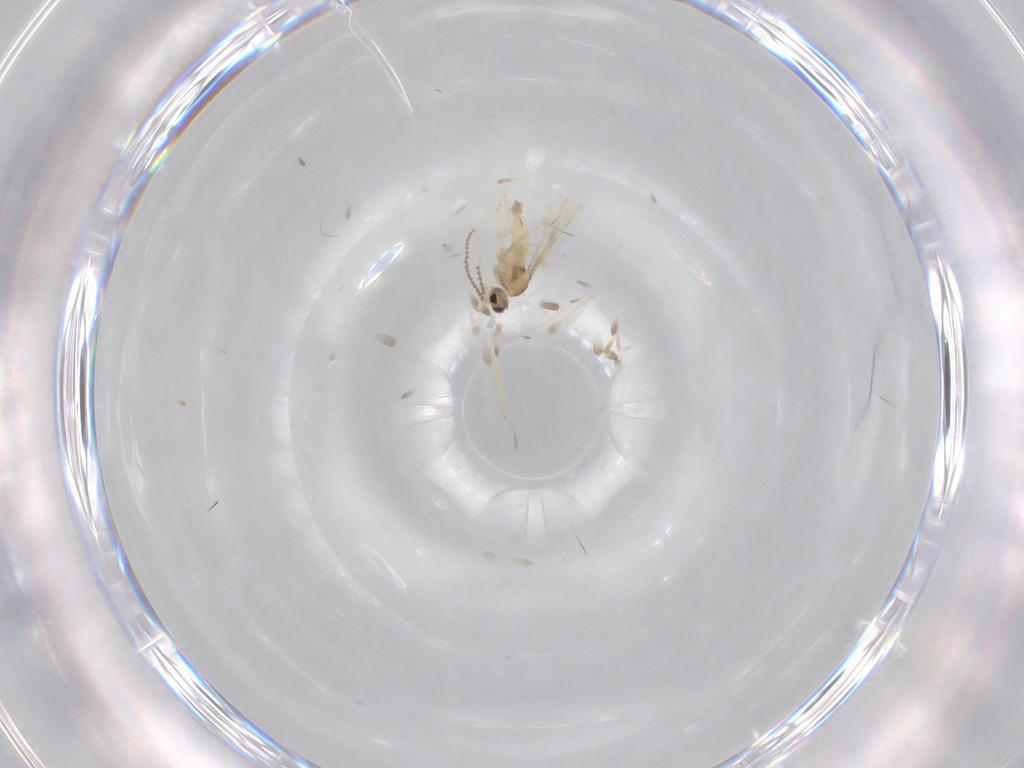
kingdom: Animalia
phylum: Arthropoda
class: Insecta
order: Diptera
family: Cecidomyiidae
